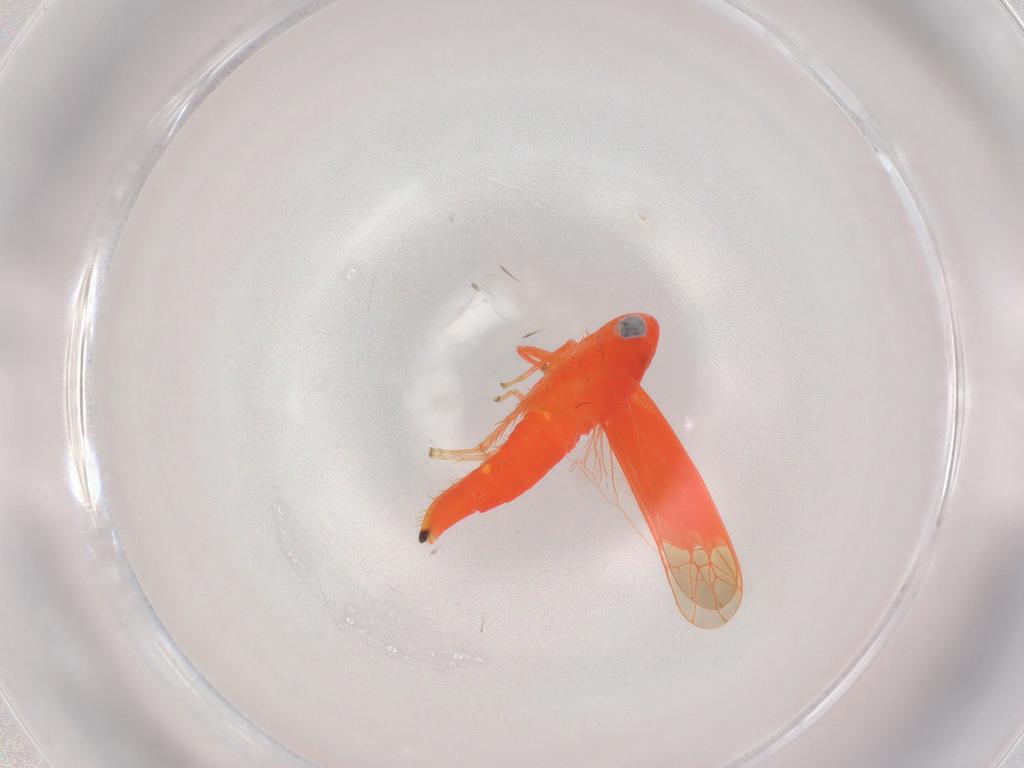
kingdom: Animalia
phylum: Arthropoda
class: Insecta
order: Hemiptera
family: Cicadellidae
